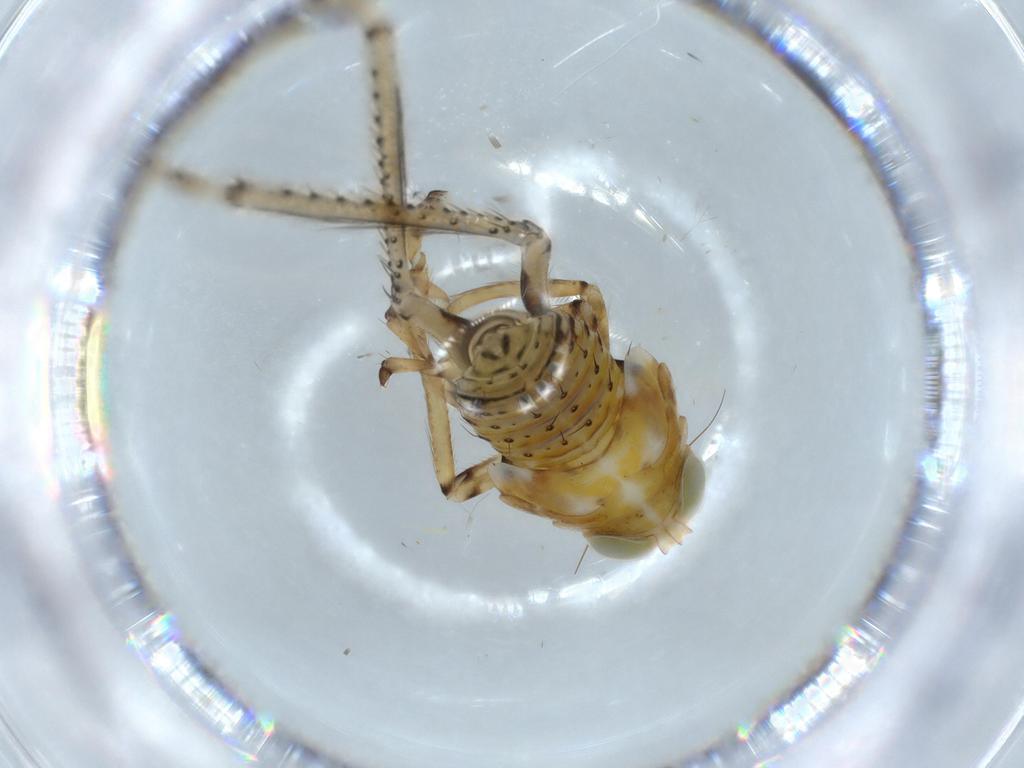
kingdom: Animalia
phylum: Arthropoda
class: Insecta
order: Hemiptera
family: Cicadellidae
